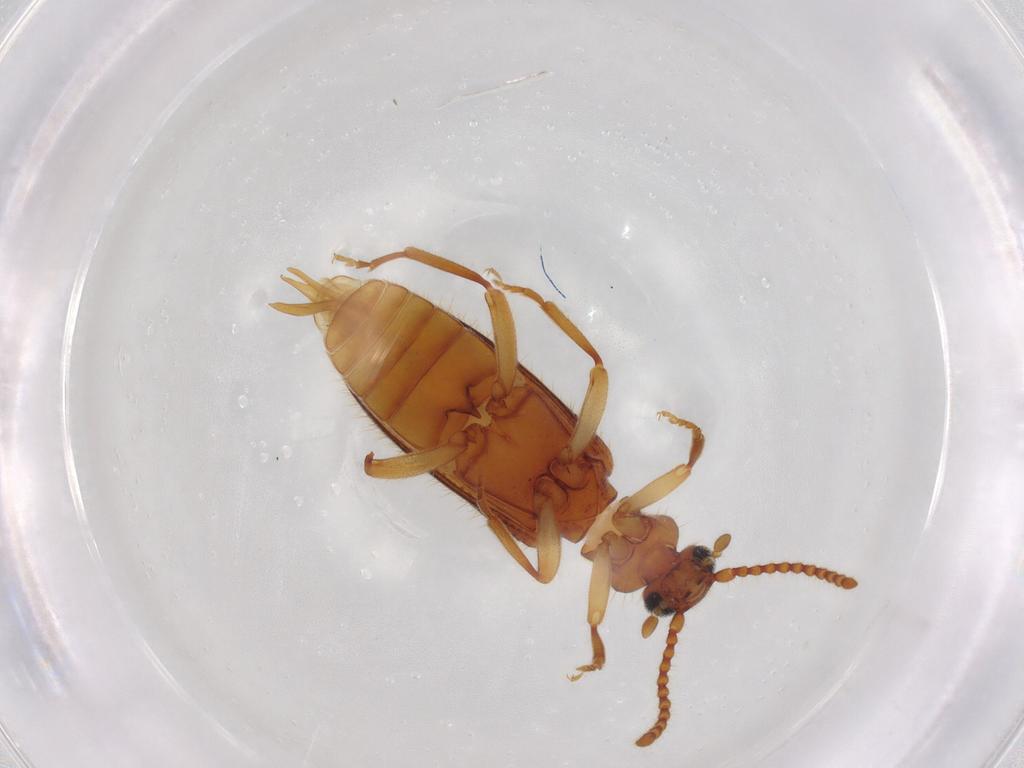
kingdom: Animalia
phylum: Arthropoda
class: Insecta
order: Coleoptera
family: Anthicidae
